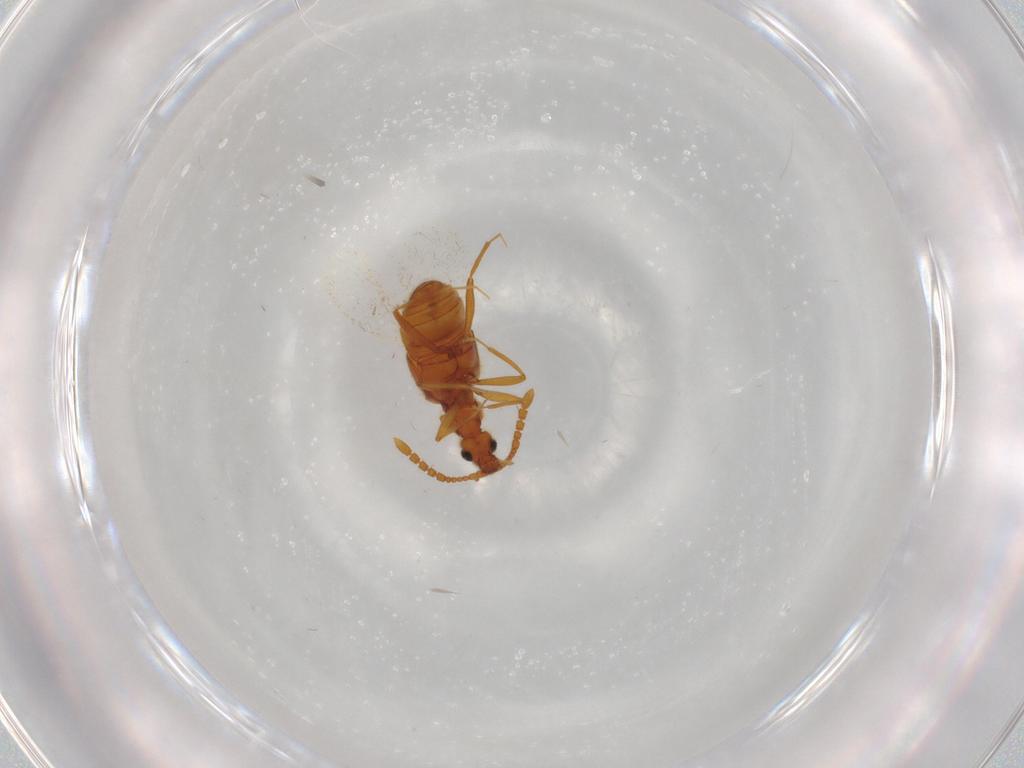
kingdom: Animalia
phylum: Arthropoda
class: Insecta
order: Coleoptera
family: Staphylinidae
